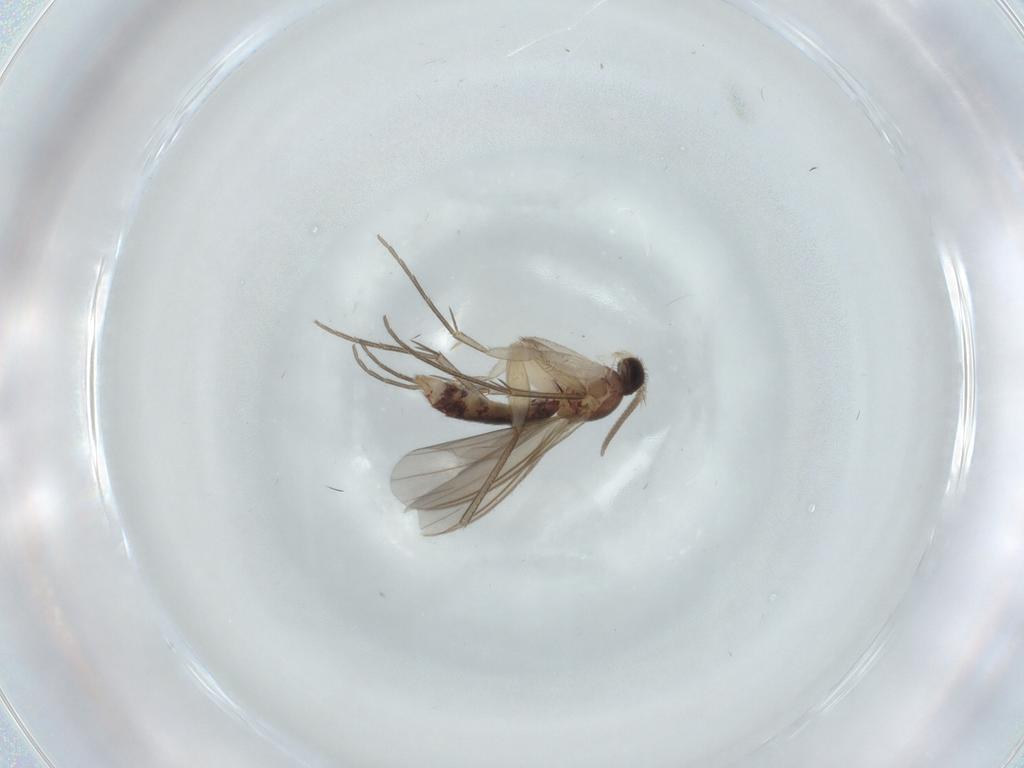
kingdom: Animalia
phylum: Arthropoda
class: Insecta
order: Diptera
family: Mycetophilidae
